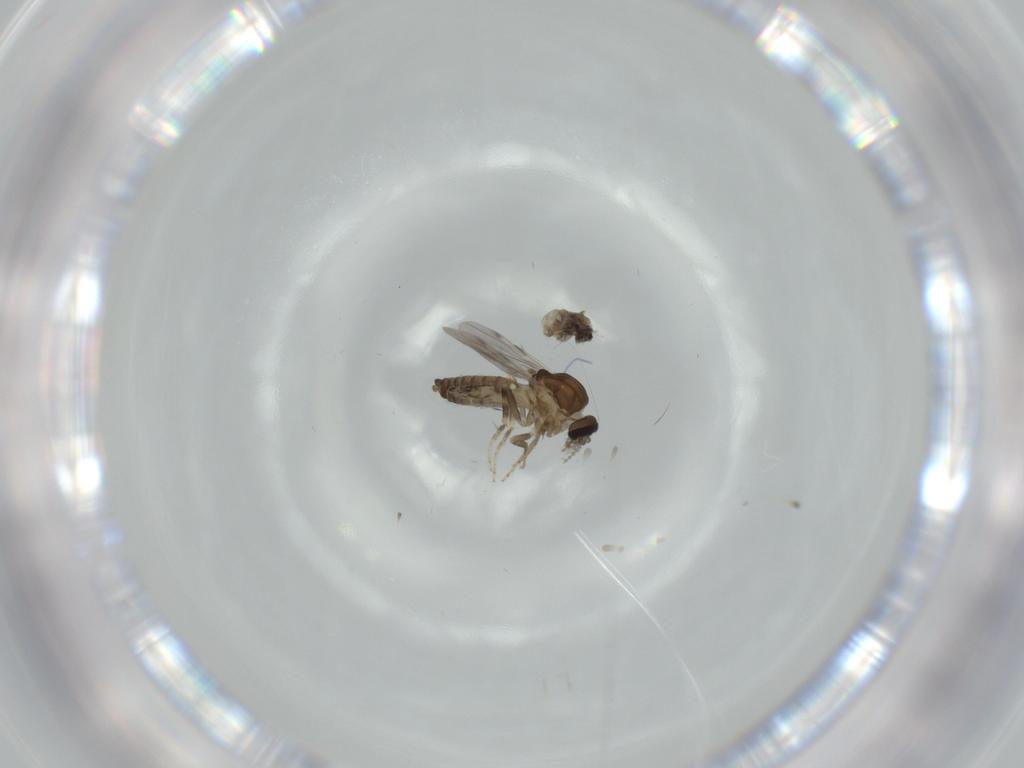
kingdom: Animalia
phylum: Arthropoda
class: Insecta
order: Diptera
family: Ceratopogonidae
